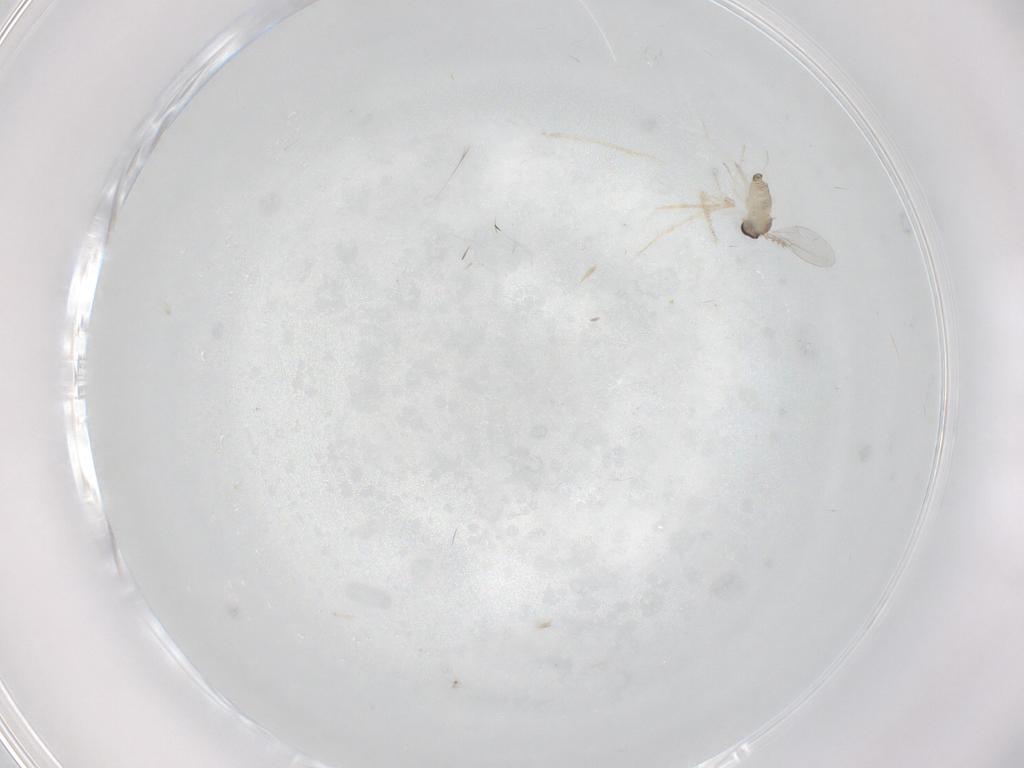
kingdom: Animalia
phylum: Arthropoda
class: Insecta
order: Diptera
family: Cecidomyiidae
